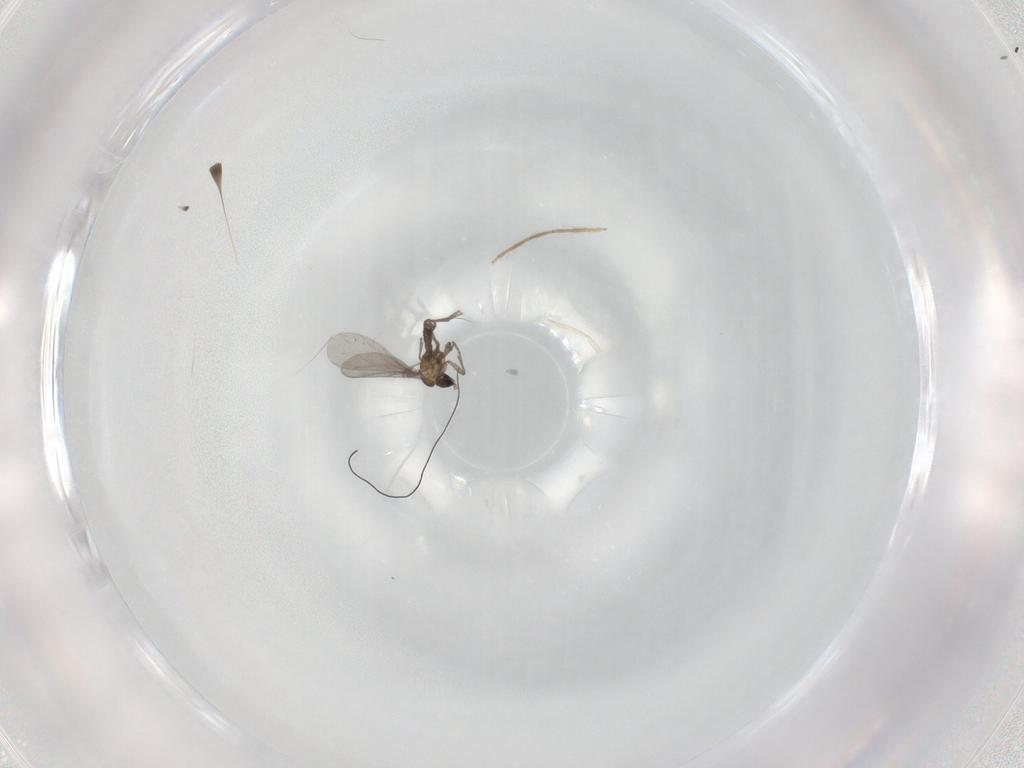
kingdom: Animalia
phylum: Arthropoda
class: Insecta
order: Diptera
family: Sciaridae
